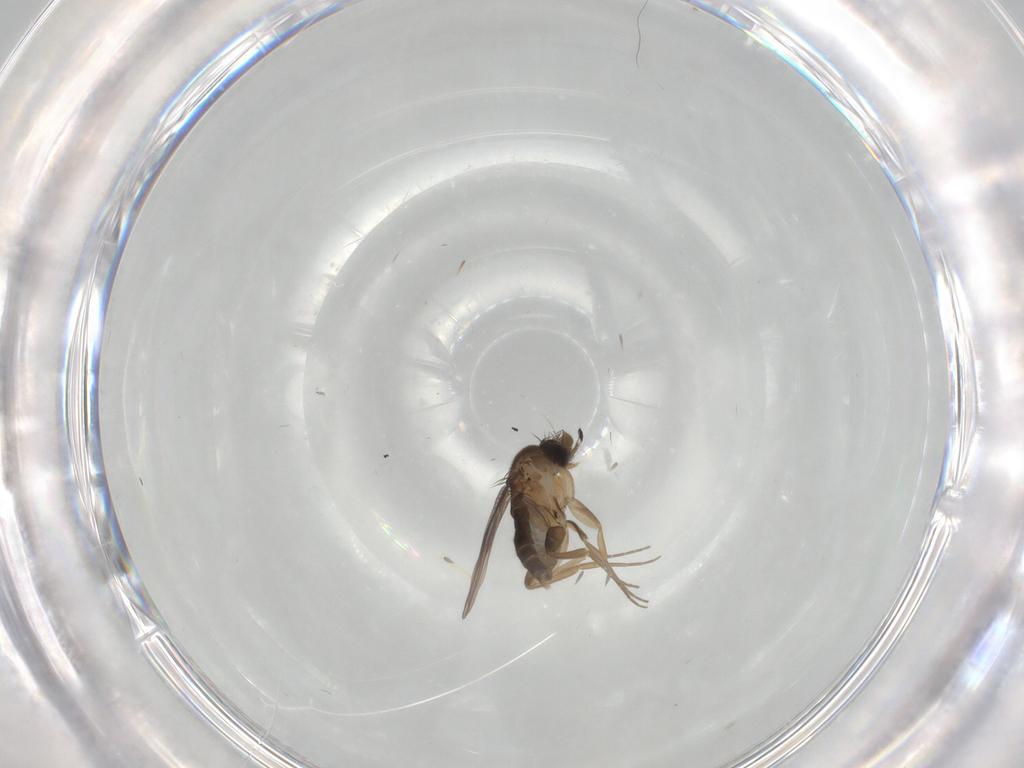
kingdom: Animalia
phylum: Arthropoda
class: Insecta
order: Diptera
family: Phoridae
